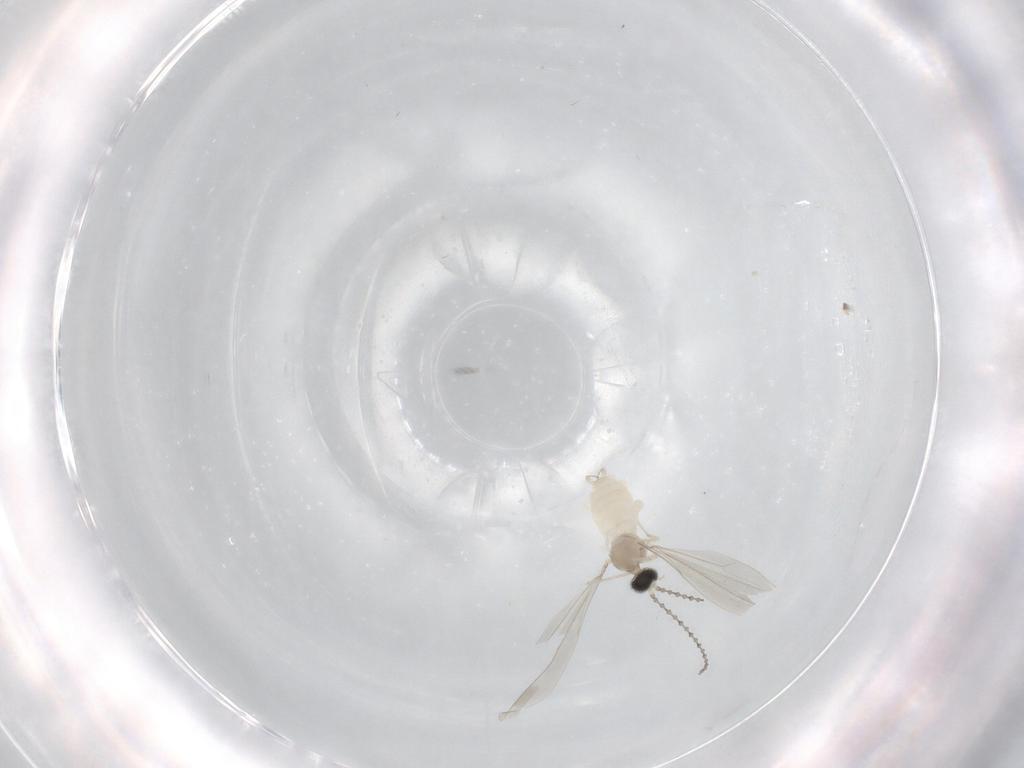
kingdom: Animalia
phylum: Arthropoda
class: Insecta
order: Diptera
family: Cecidomyiidae
